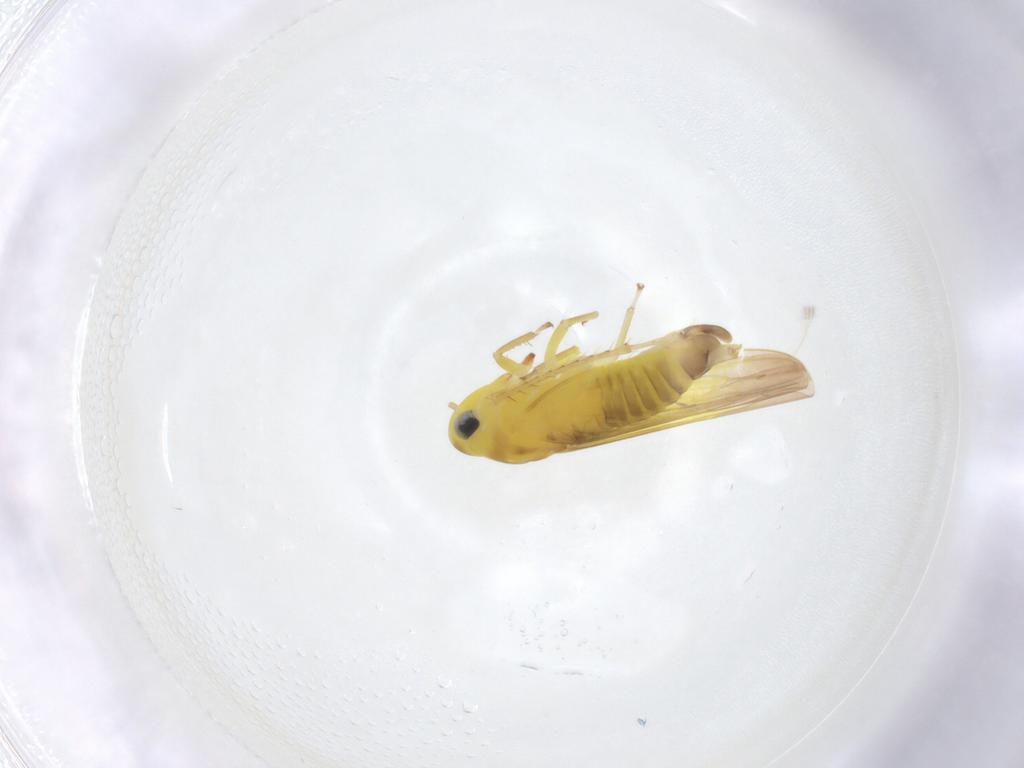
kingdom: Animalia
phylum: Arthropoda
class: Insecta
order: Hemiptera
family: Cicadellidae
